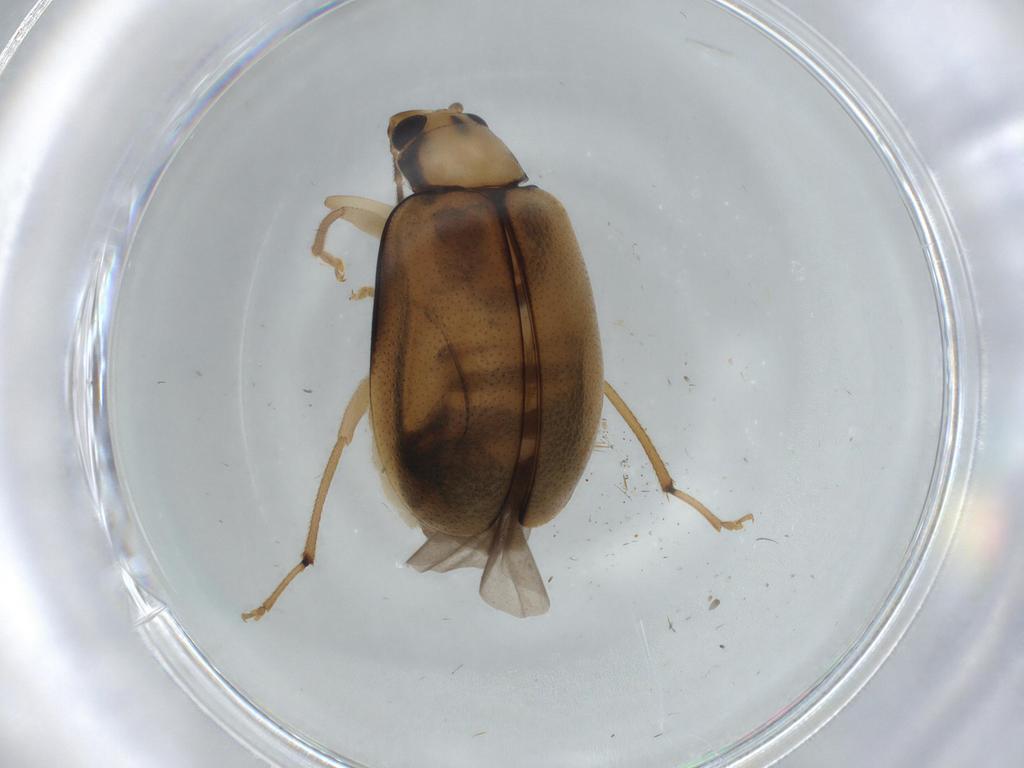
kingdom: Animalia
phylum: Arthropoda
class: Insecta
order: Coleoptera
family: Chrysomelidae
